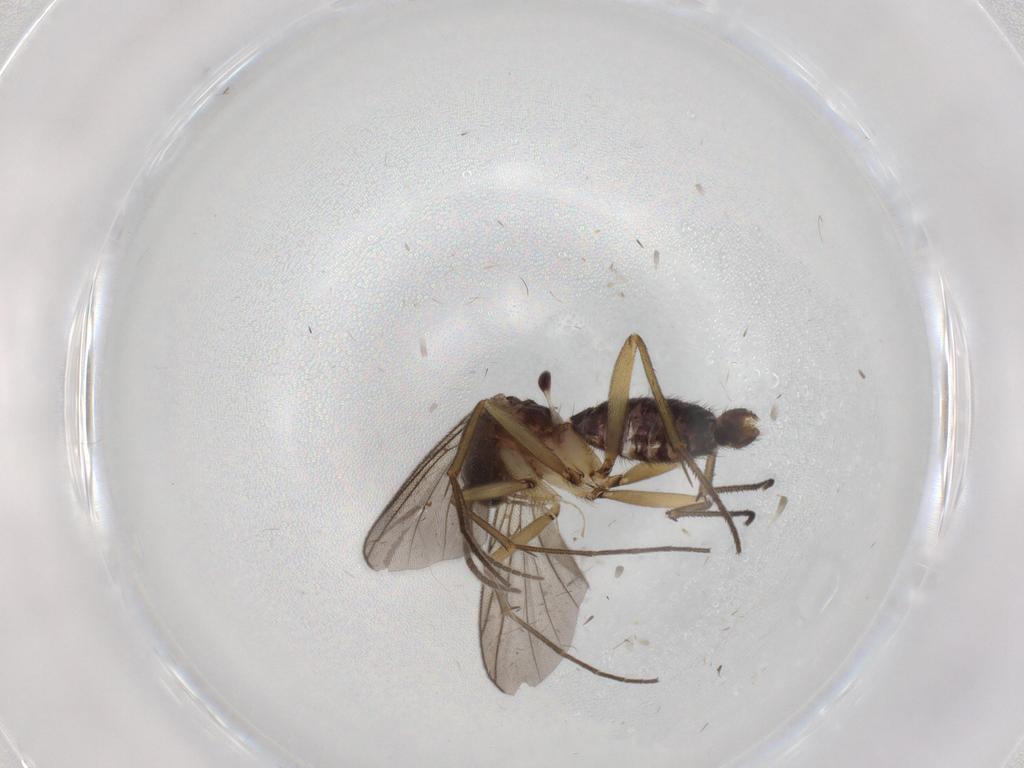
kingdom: Animalia
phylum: Arthropoda
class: Insecta
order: Diptera
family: Mycetophilidae
